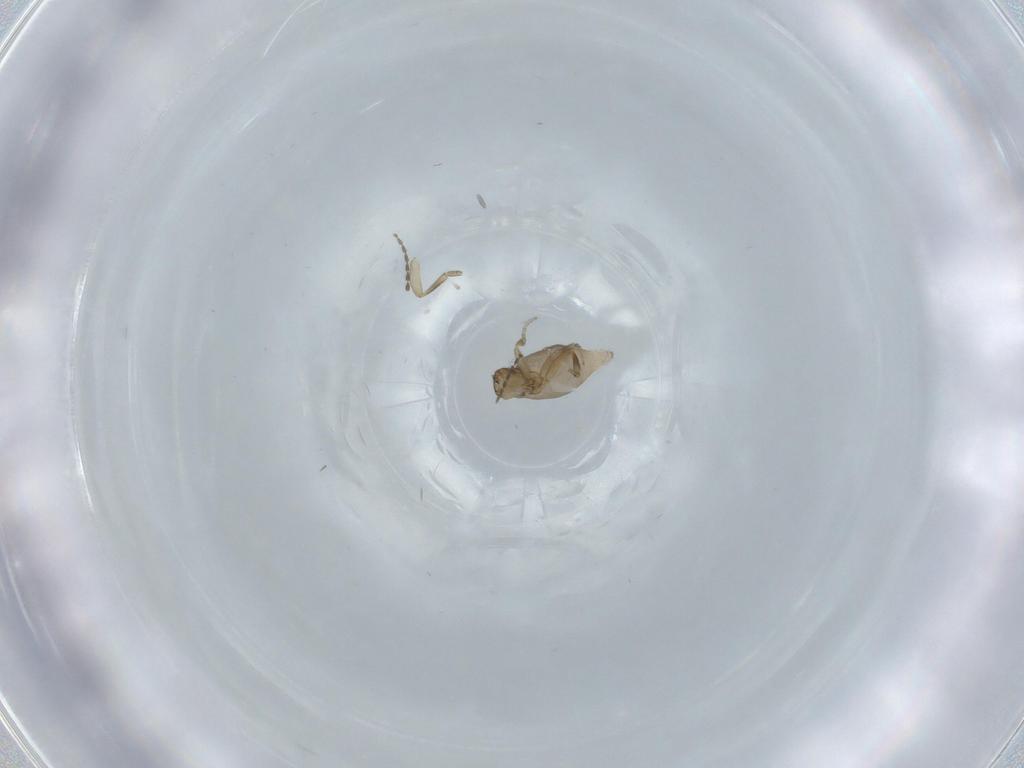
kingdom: Animalia
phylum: Arthropoda
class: Insecta
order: Diptera
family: Phoridae
